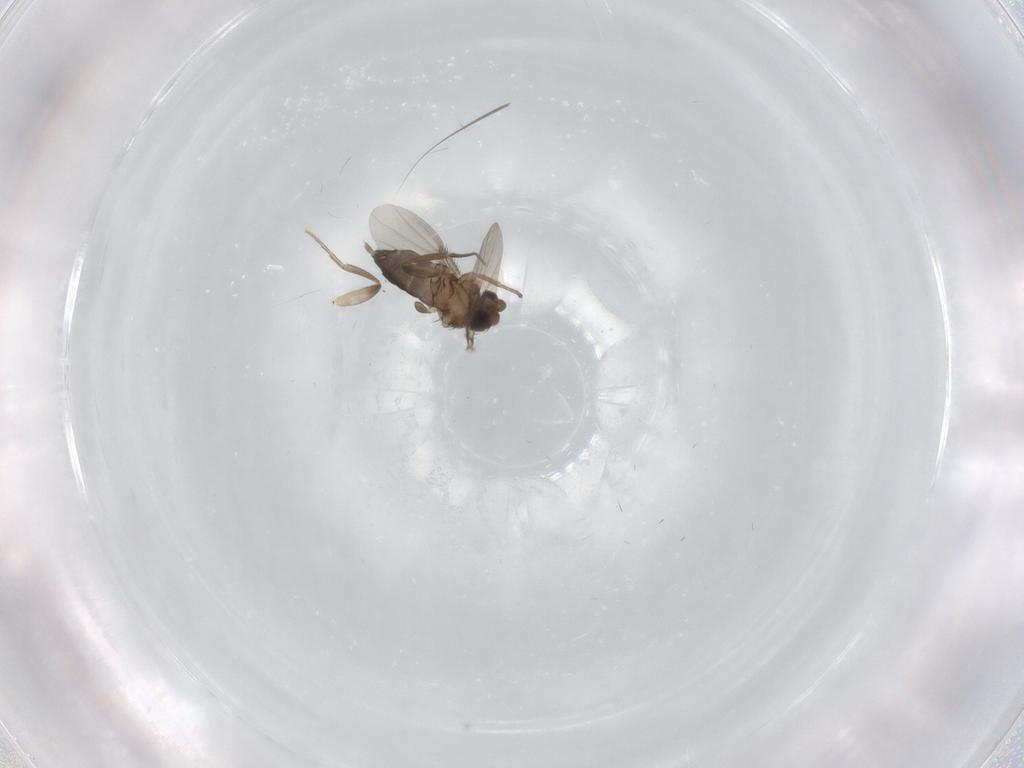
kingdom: Animalia
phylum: Arthropoda
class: Insecta
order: Diptera
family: Phoridae
